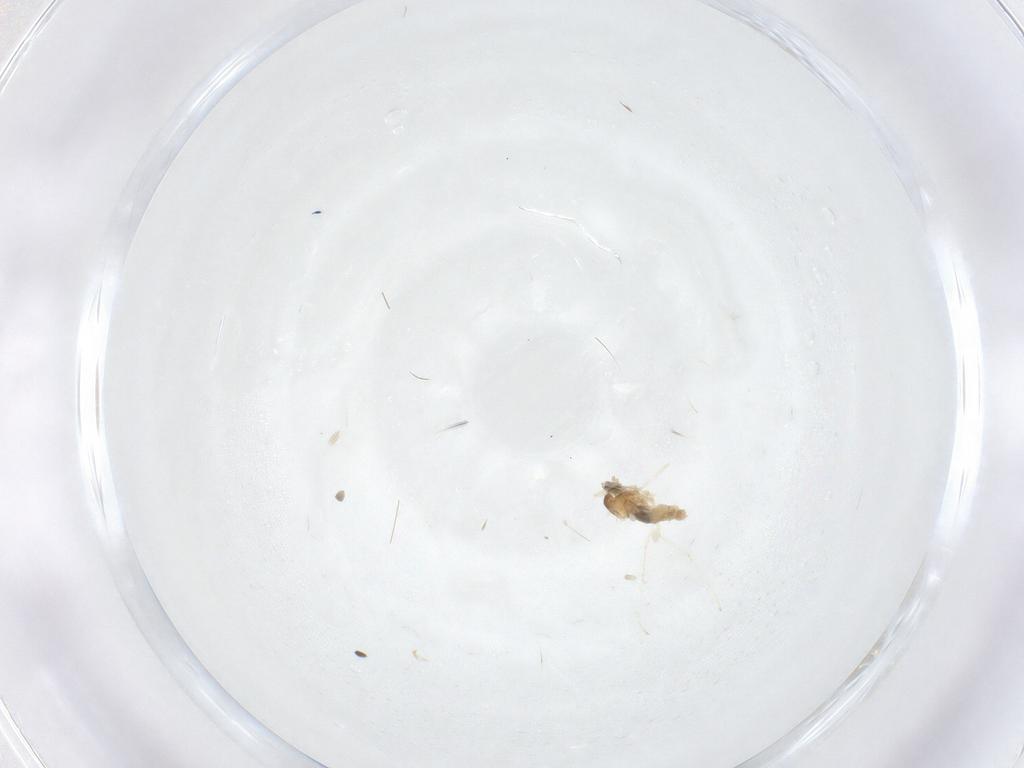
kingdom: Animalia
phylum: Arthropoda
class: Insecta
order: Diptera
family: Cecidomyiidae
